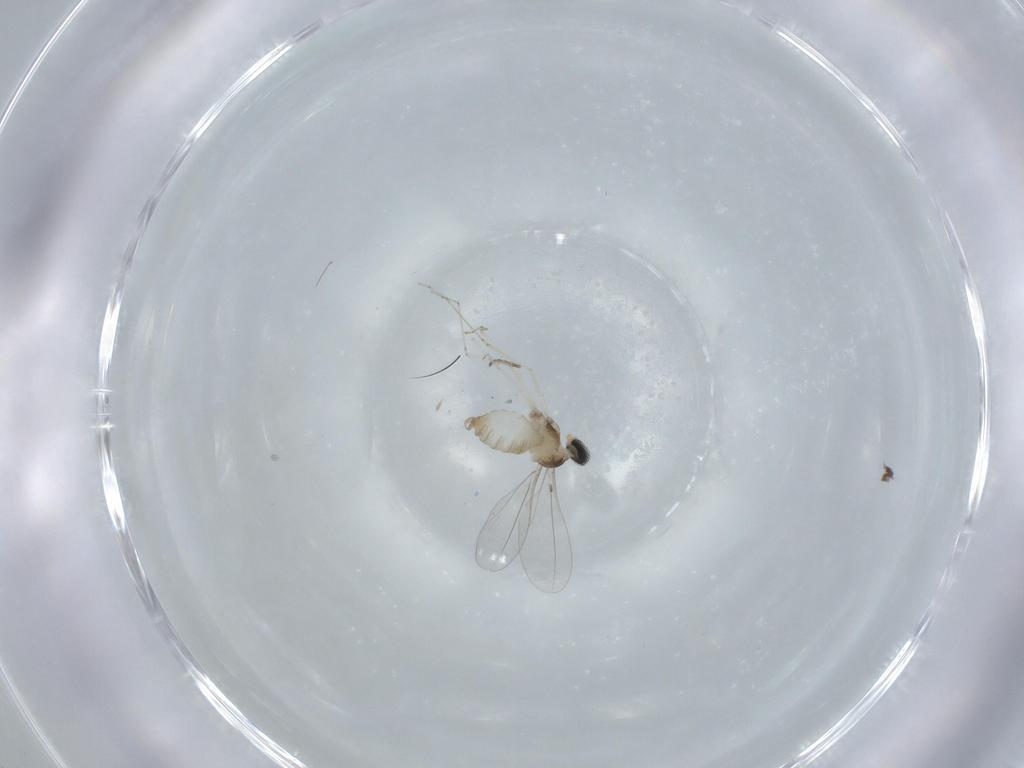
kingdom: Animalia
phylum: Arthropoda
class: Insecta
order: Diptera
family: Cecidomyiidae
